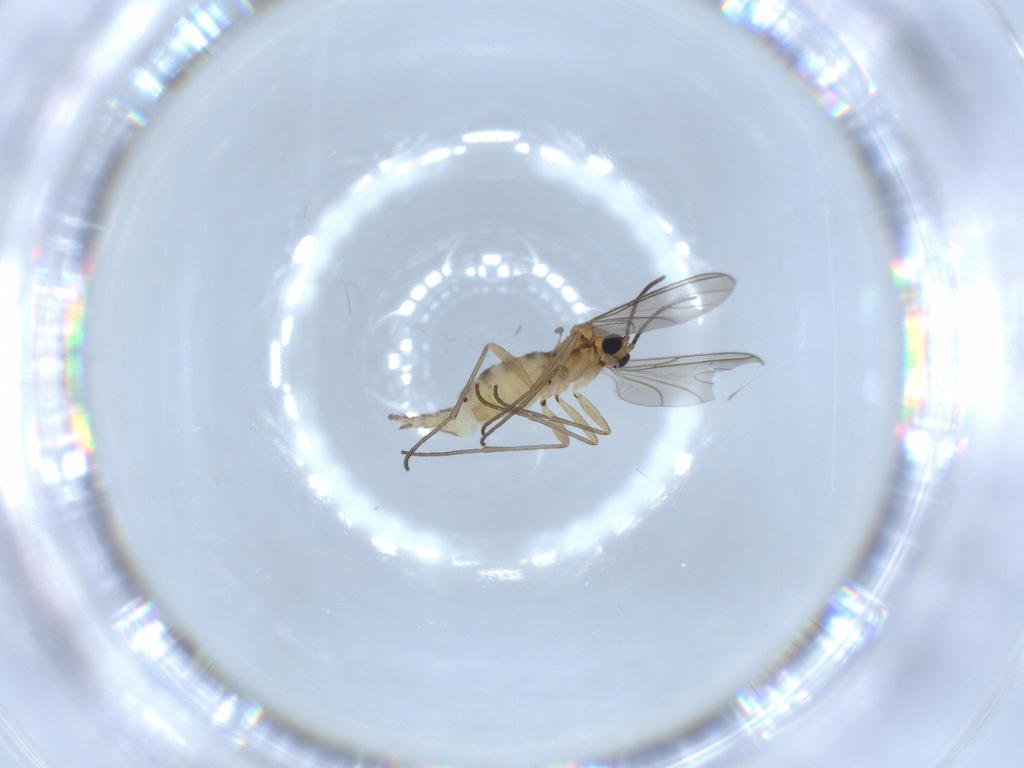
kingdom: Animalia
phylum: Arthropoda
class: Insecta
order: Diptera
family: Sciaridae
